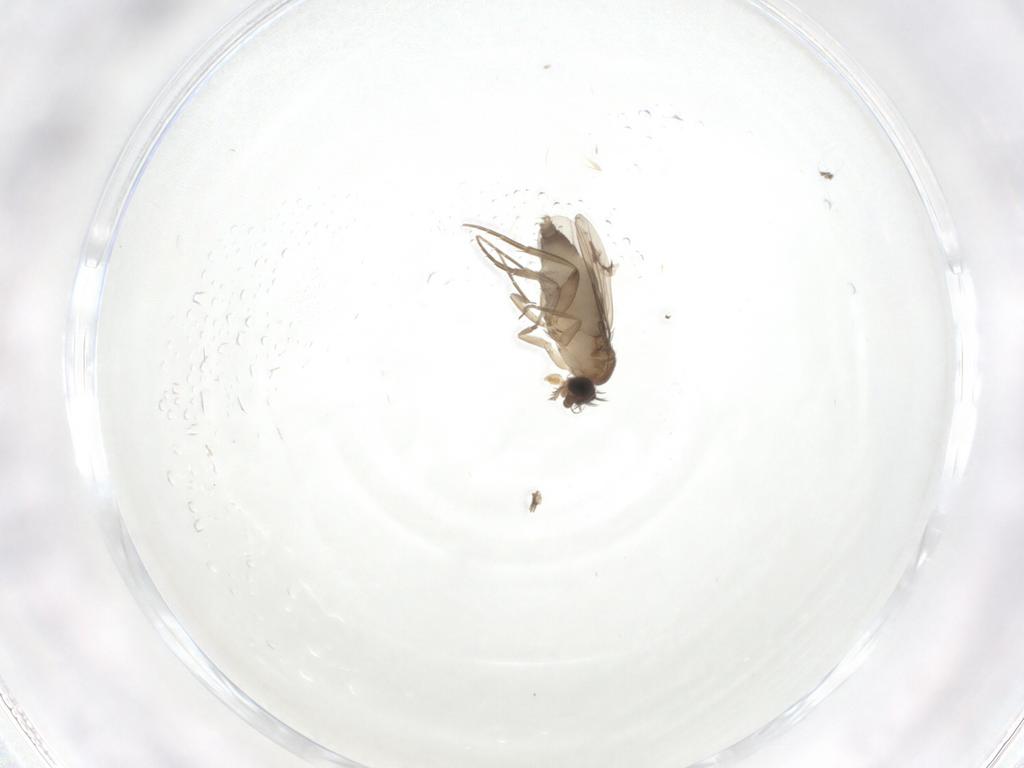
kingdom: Animalia
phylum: Arthropoda
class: Insecta
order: Diptera
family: Phoridae
